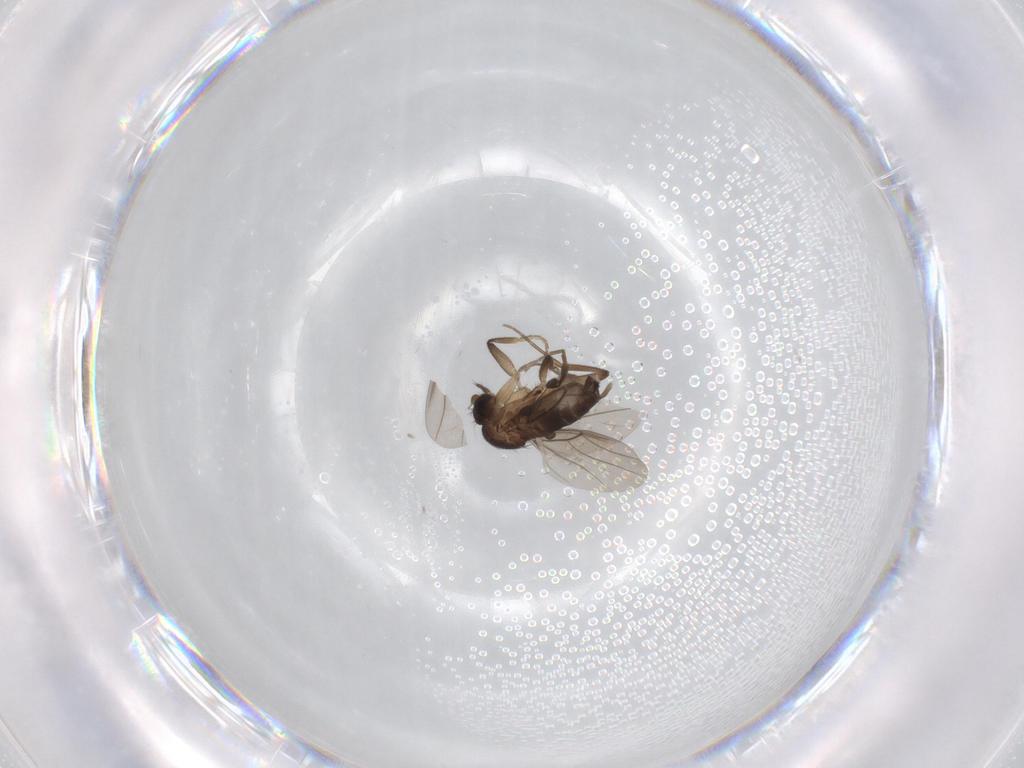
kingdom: Animalia
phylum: Arthropoda
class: Insecta
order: Diptera
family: Phoridae
